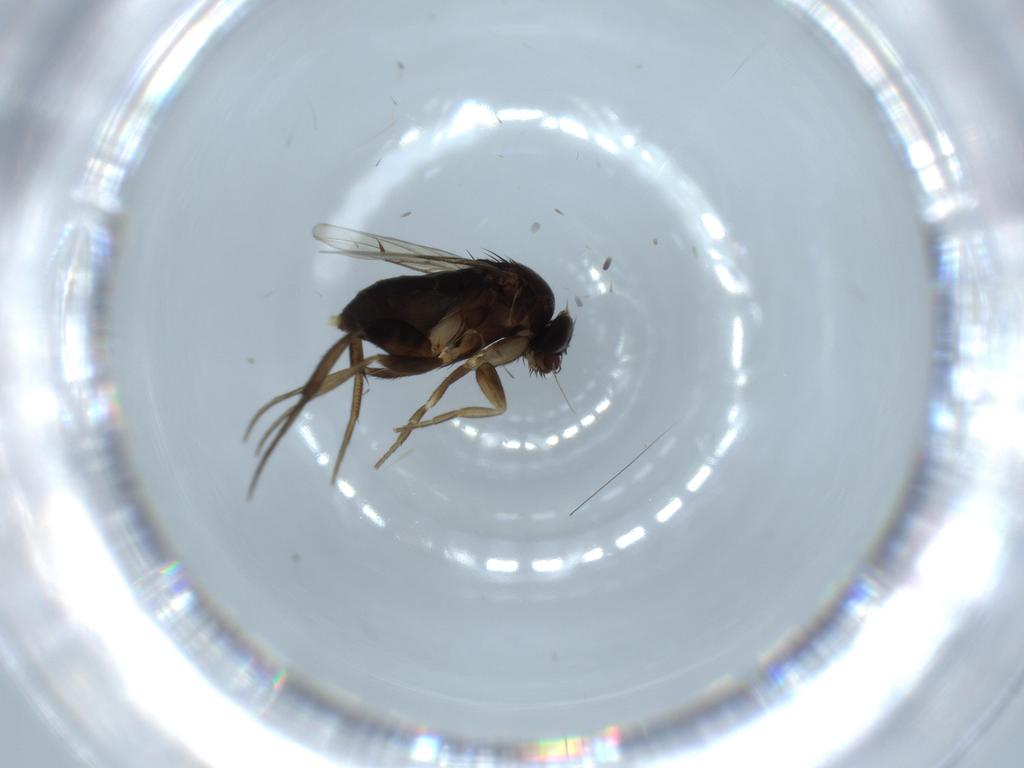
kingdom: Animalia
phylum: Arthropoda
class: Insecta
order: Diptera
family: Phoridae
